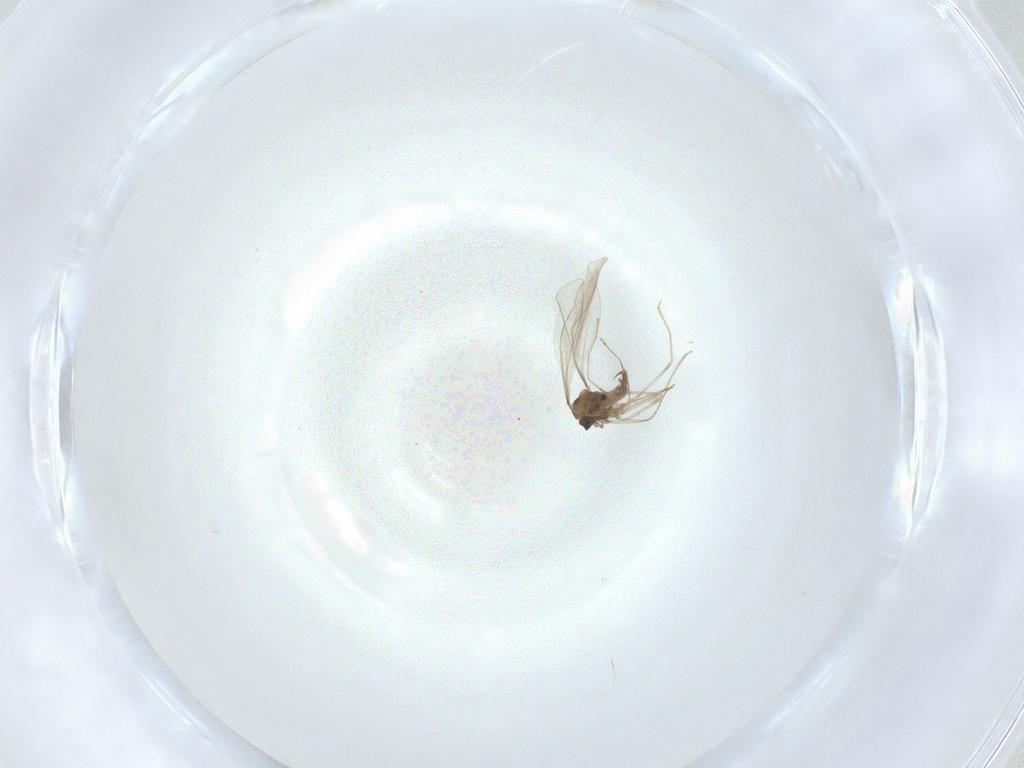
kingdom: Animalia
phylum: Arthropoda
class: Insecta
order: Diptera
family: Cecidomyiidae
